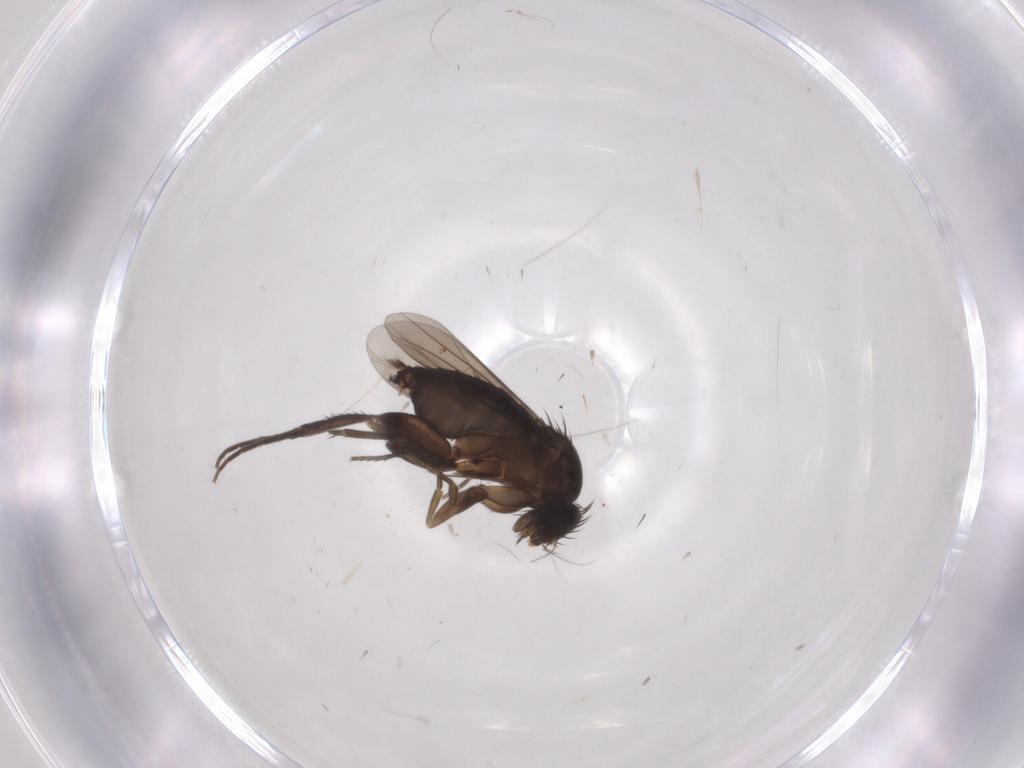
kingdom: Animalia
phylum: Arthropoda
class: Insecta
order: Diptera
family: Phoridae
